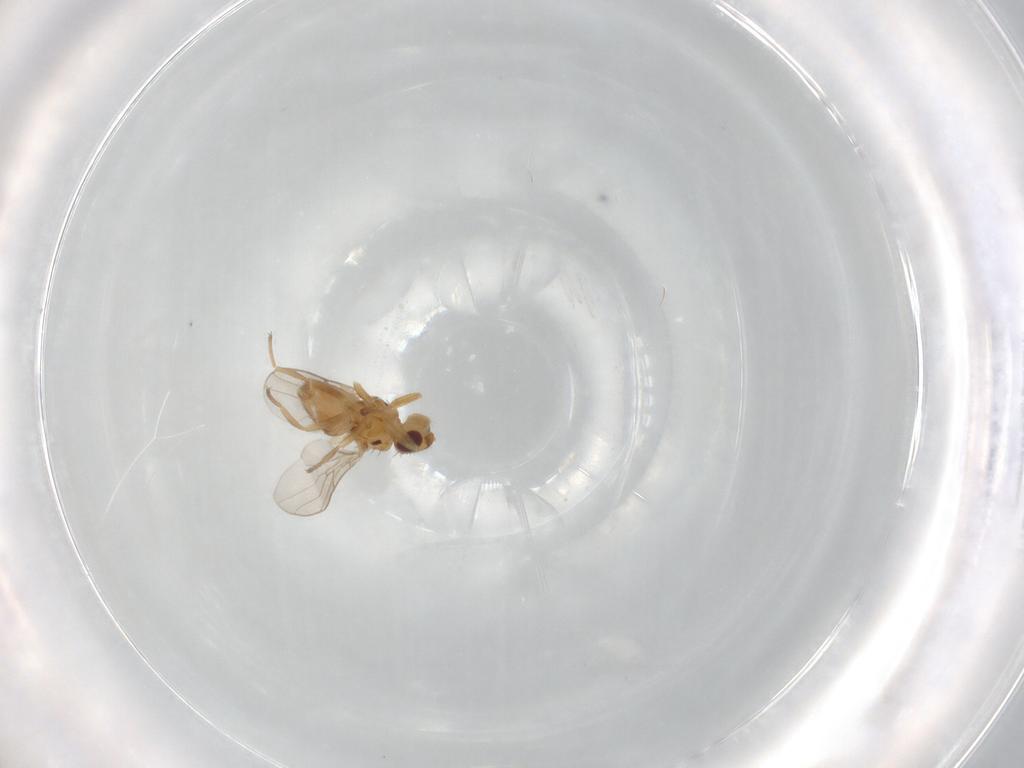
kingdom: Animalia
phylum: Arthropoda
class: Insecta
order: Diptera
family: Chloropidae
